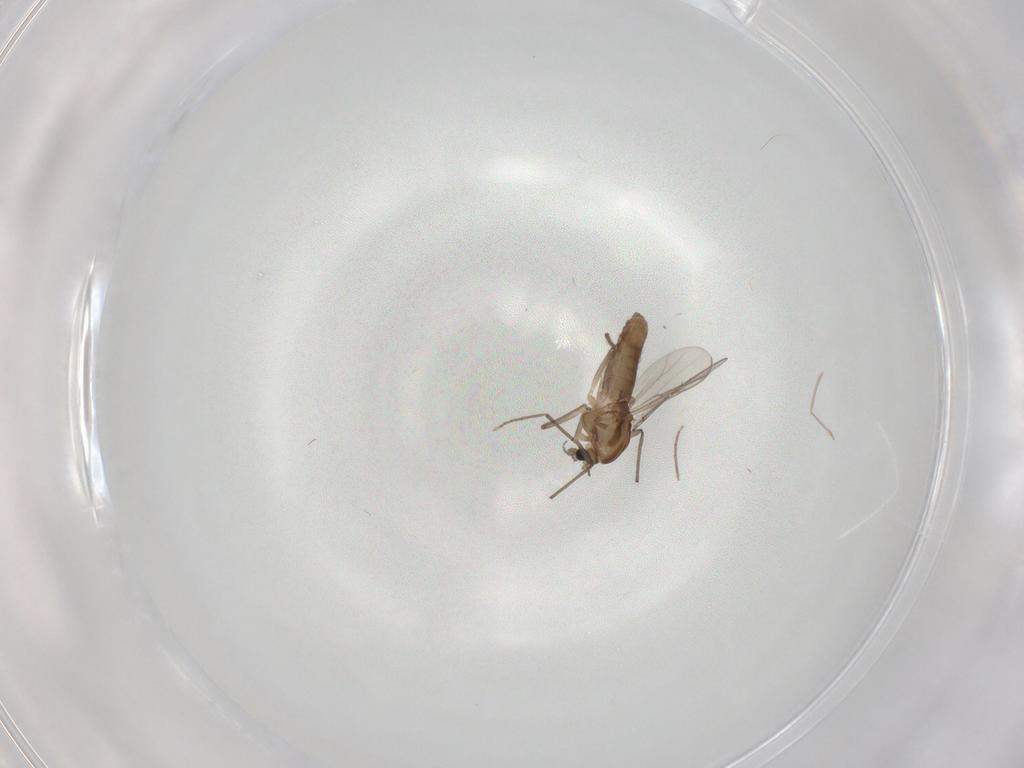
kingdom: Animalia
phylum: Arthropoda
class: Insecta
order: Diptera
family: Chironomidae
